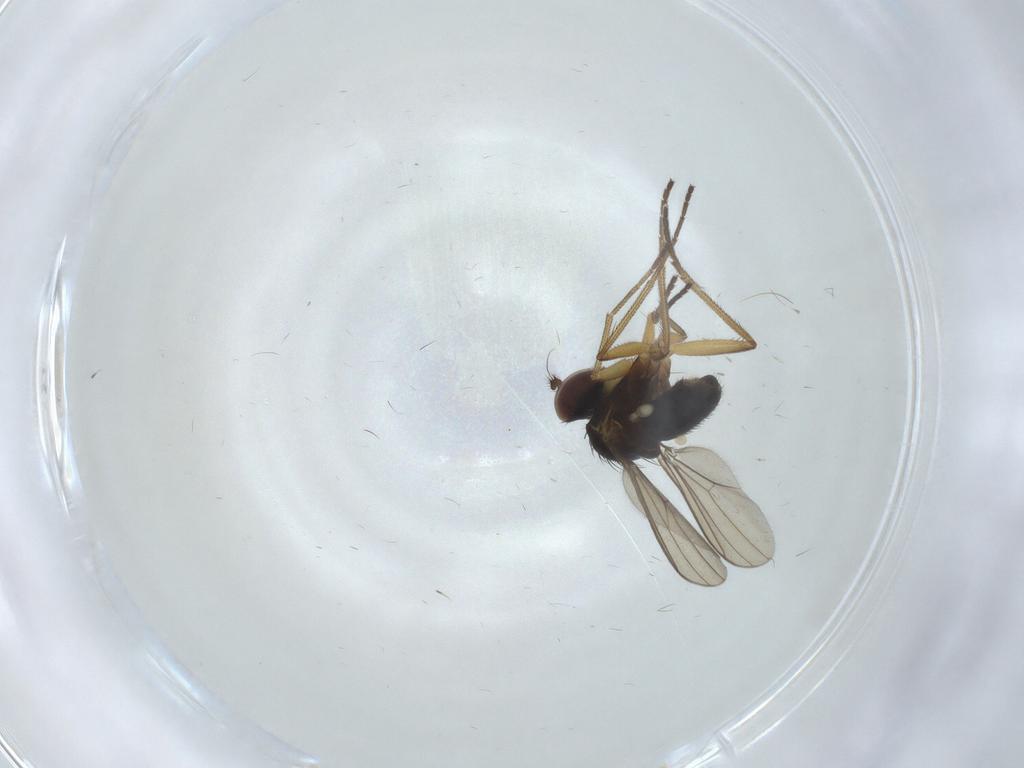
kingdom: Animalia
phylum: Arthropoda
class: Insecta
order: Diptera
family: Dolichopodidae
